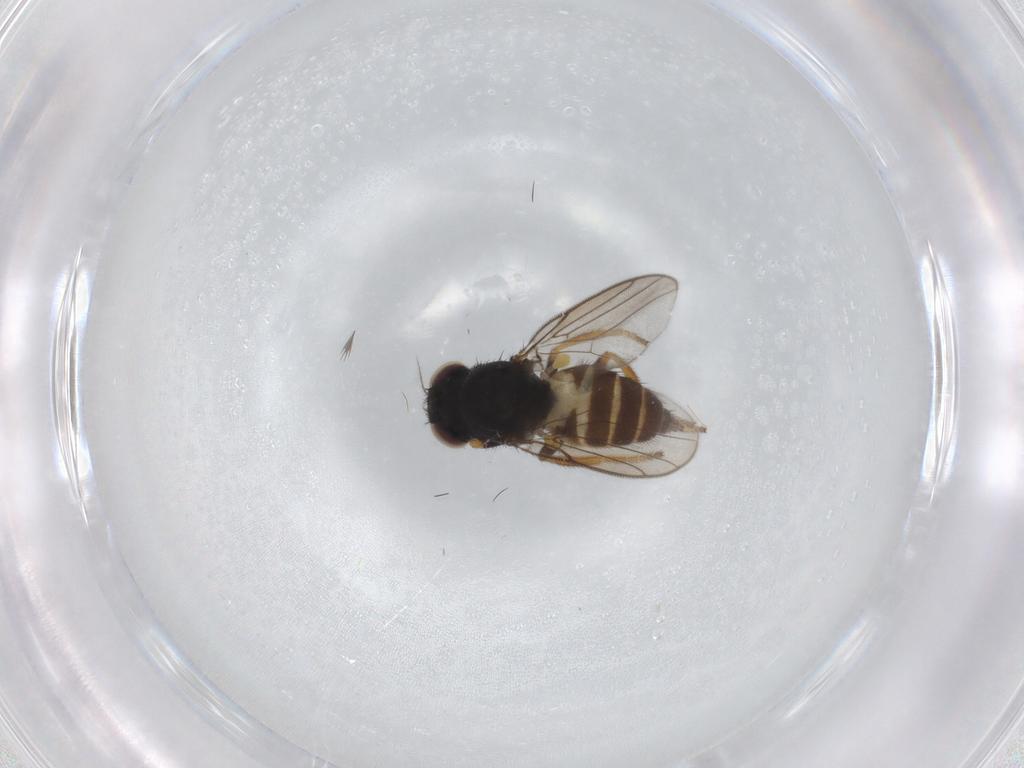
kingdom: Animalia
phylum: Arthropoda
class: Insecta
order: Diptera
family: Chloropidae
